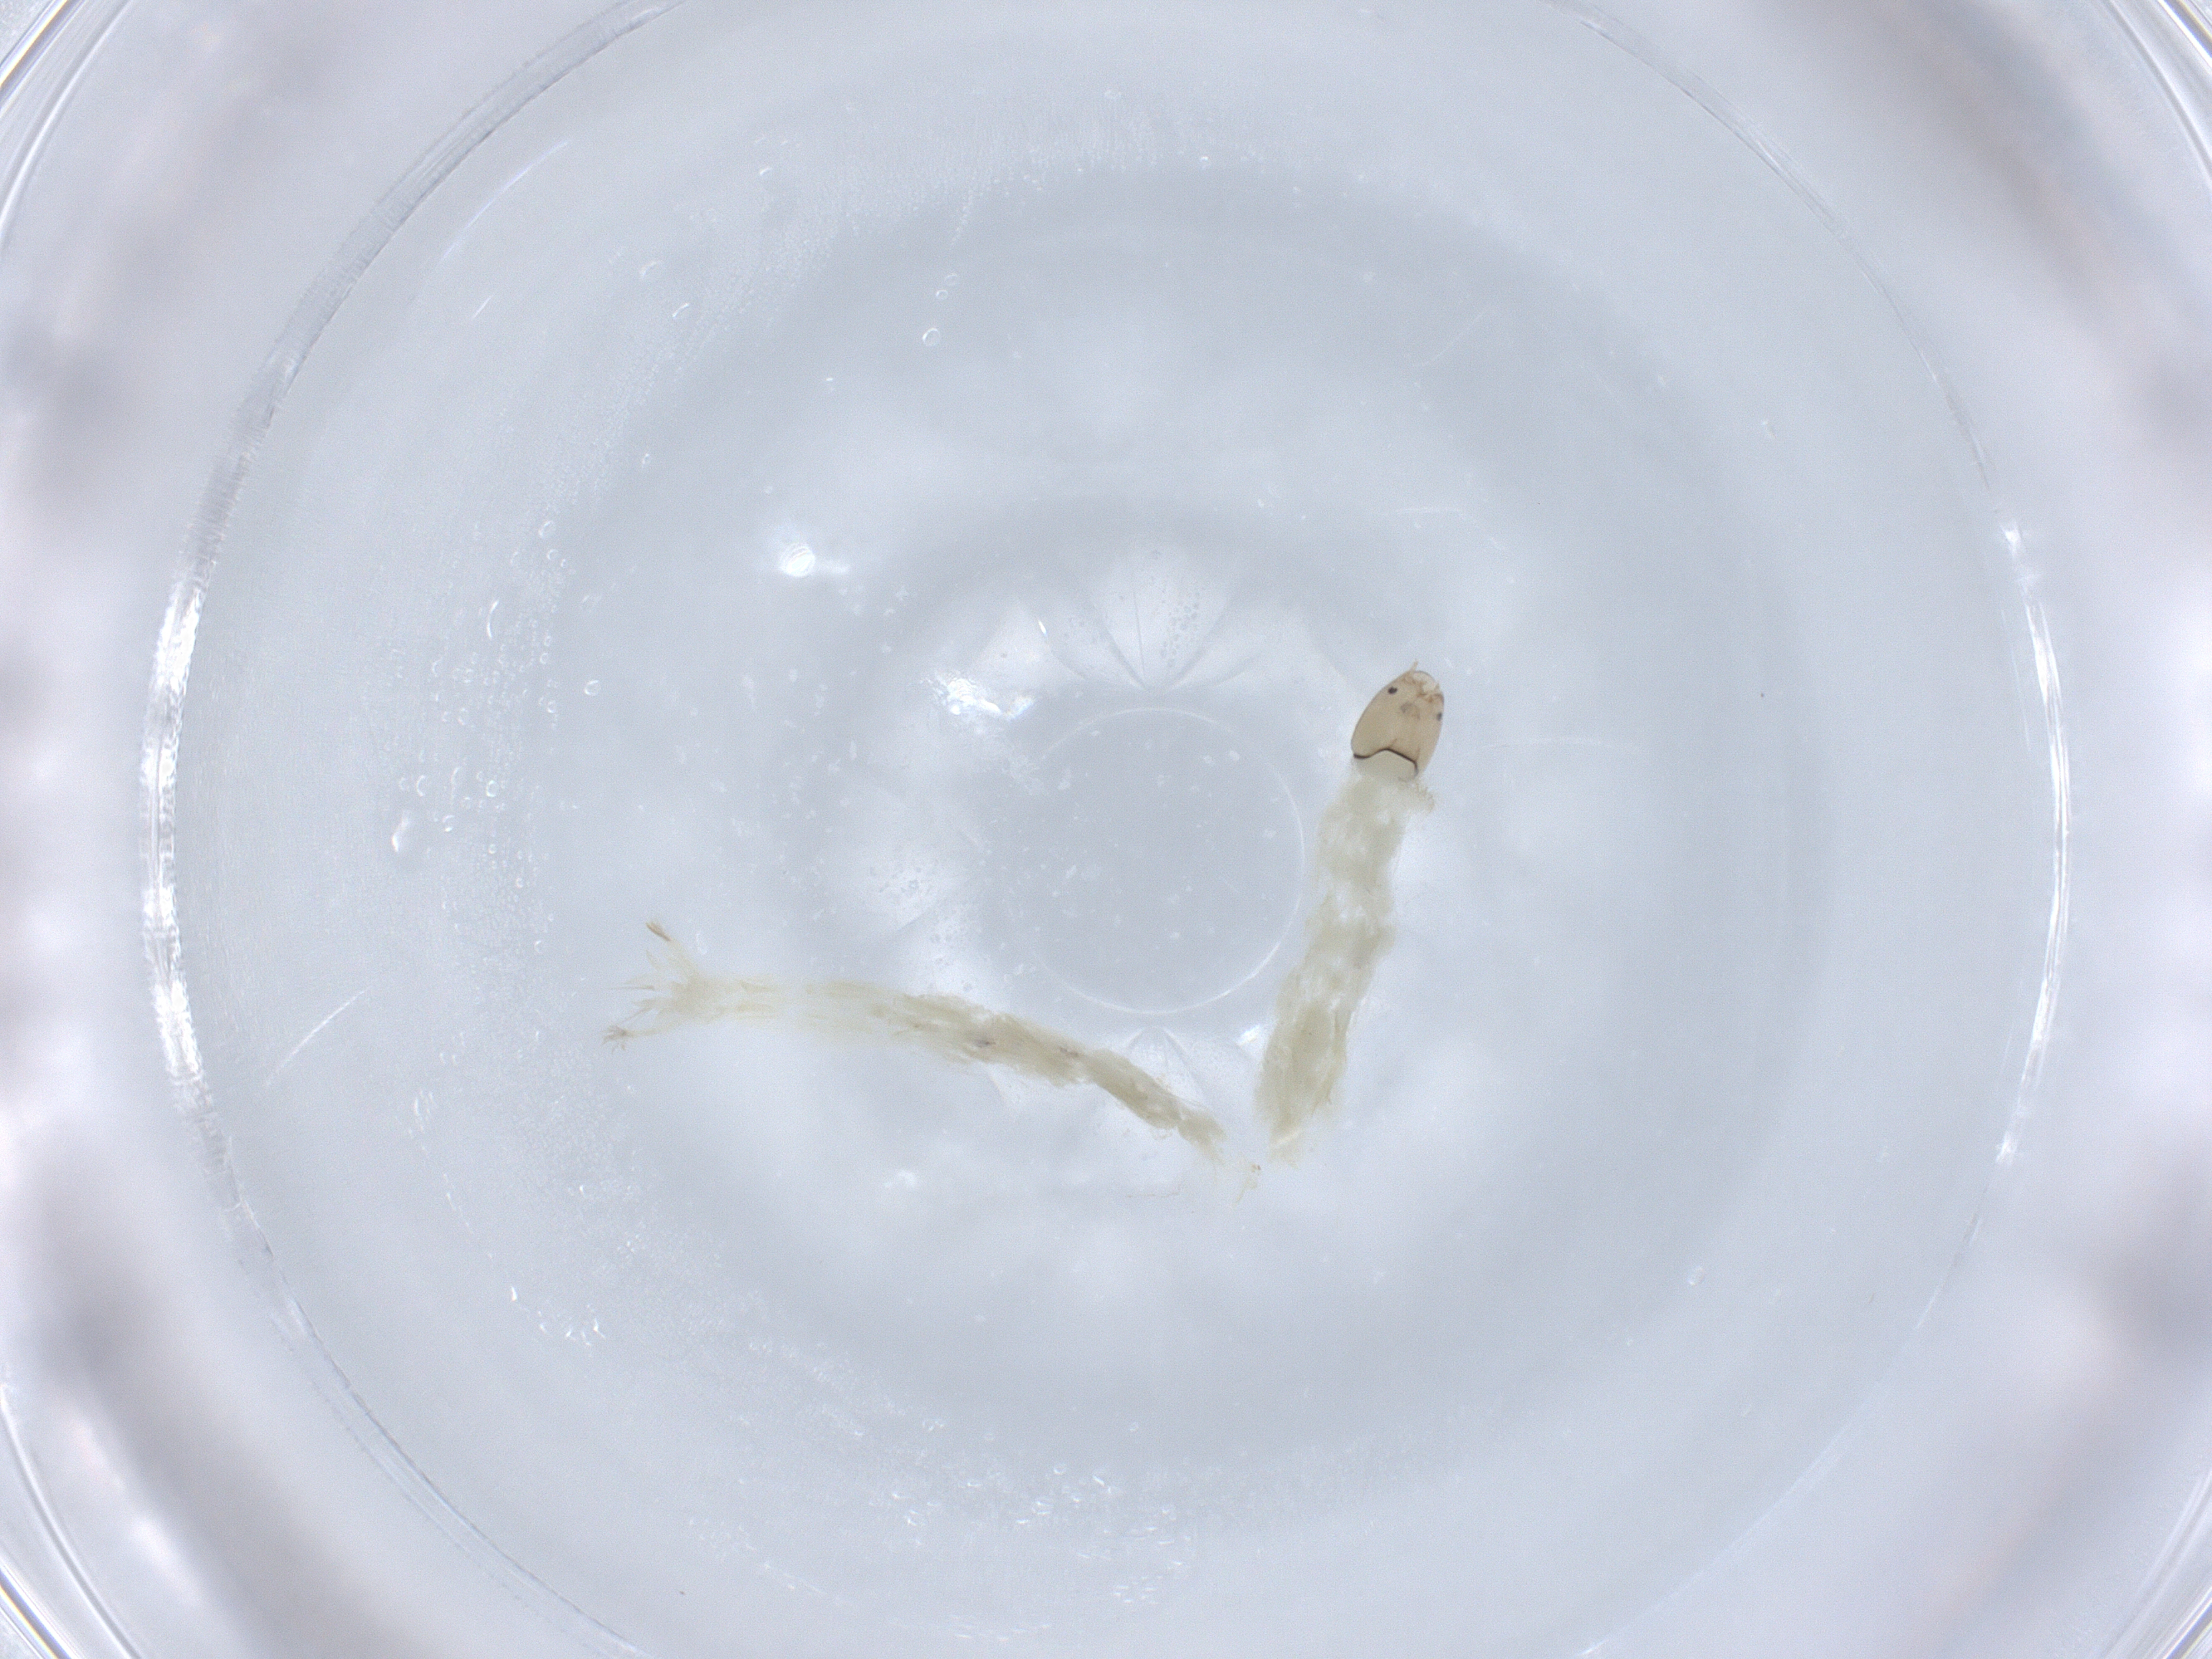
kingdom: Animalia
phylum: Arthropoda
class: Insecta
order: Diptera
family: Chironomidae
